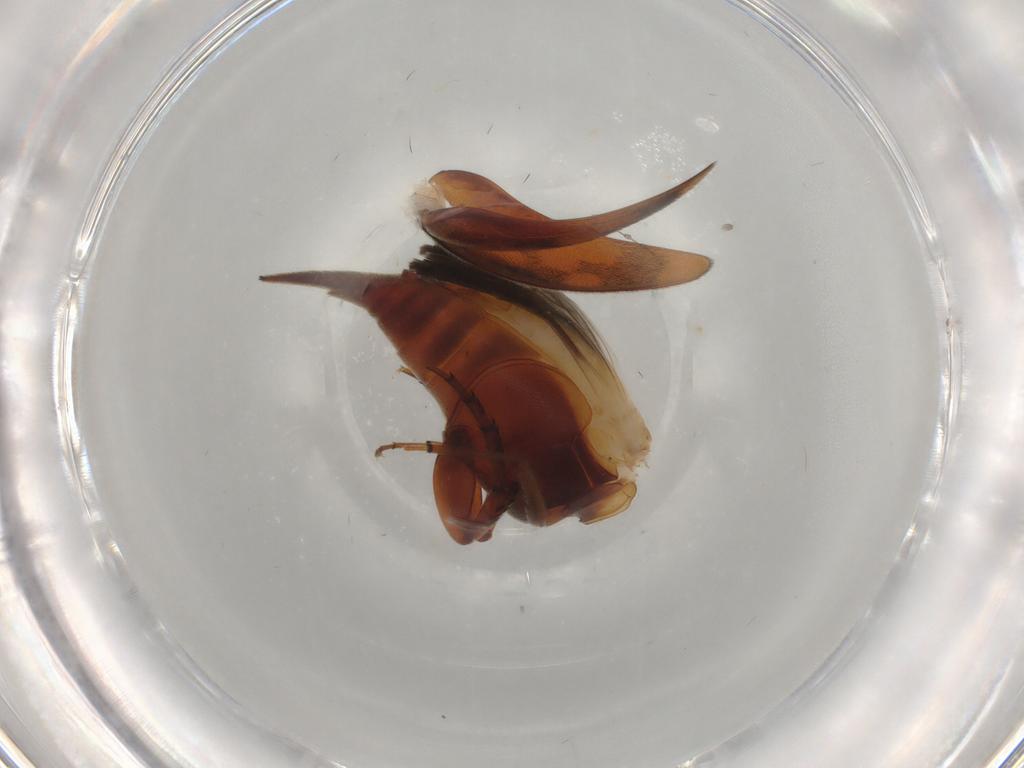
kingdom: Animalia
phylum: Arthropoda
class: Insecta
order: Coleoptera
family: Mordellidae
